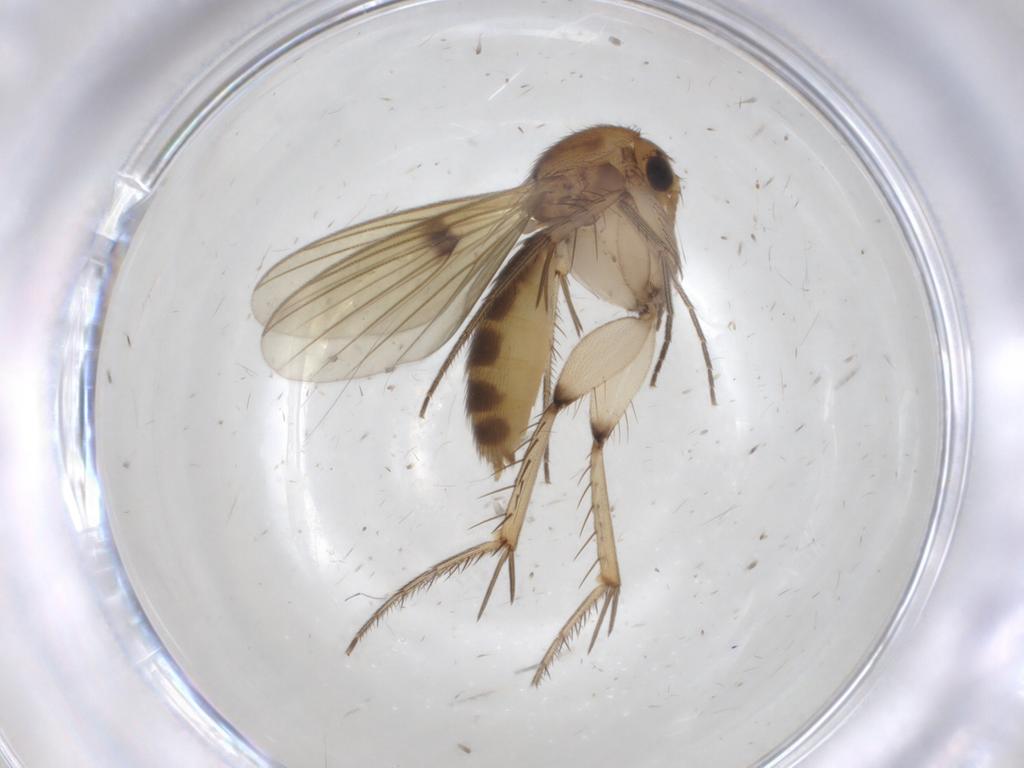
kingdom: Animalia
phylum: Arthropoda
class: Insecta
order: Diptera
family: Mycetophilidae
